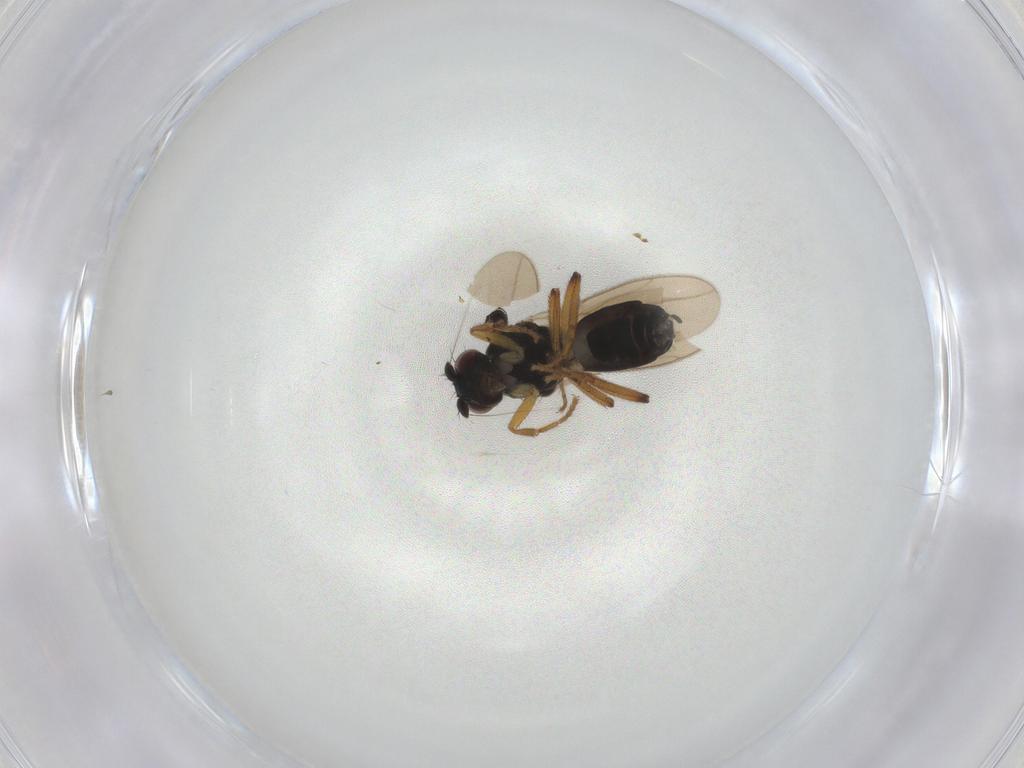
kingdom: Animalia
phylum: Arthropoda
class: Insecta
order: Diptera
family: Sphaeroceridae
